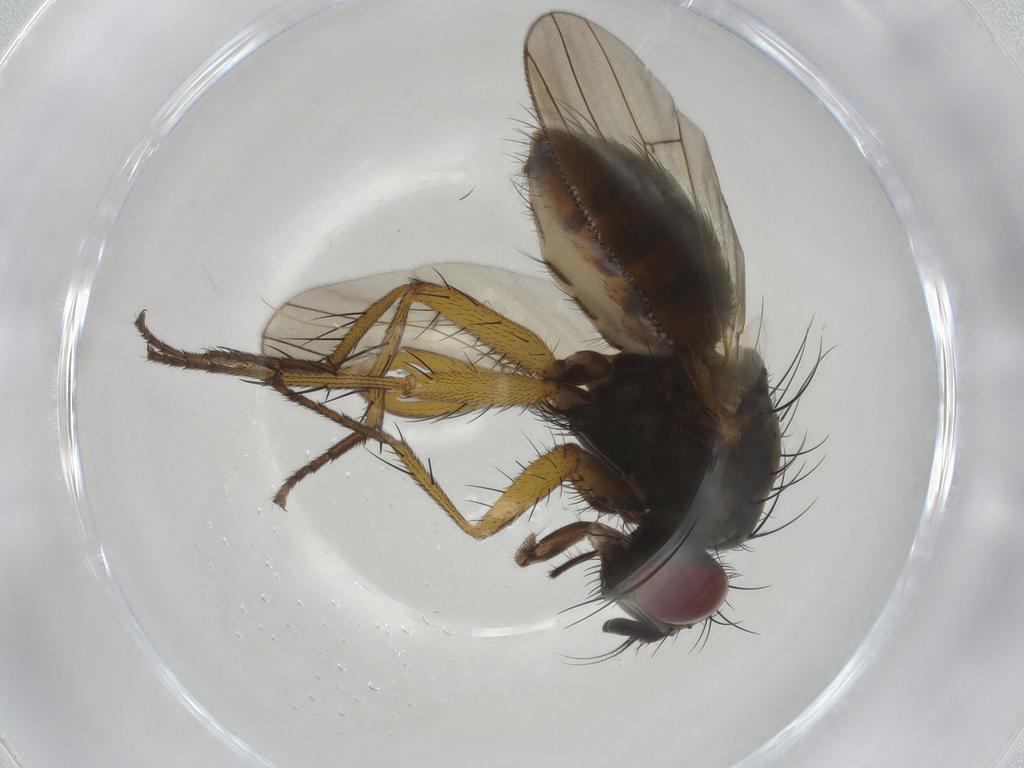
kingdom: Animalia
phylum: Arthropoda
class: Insecta
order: Diptera
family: Muscidae
